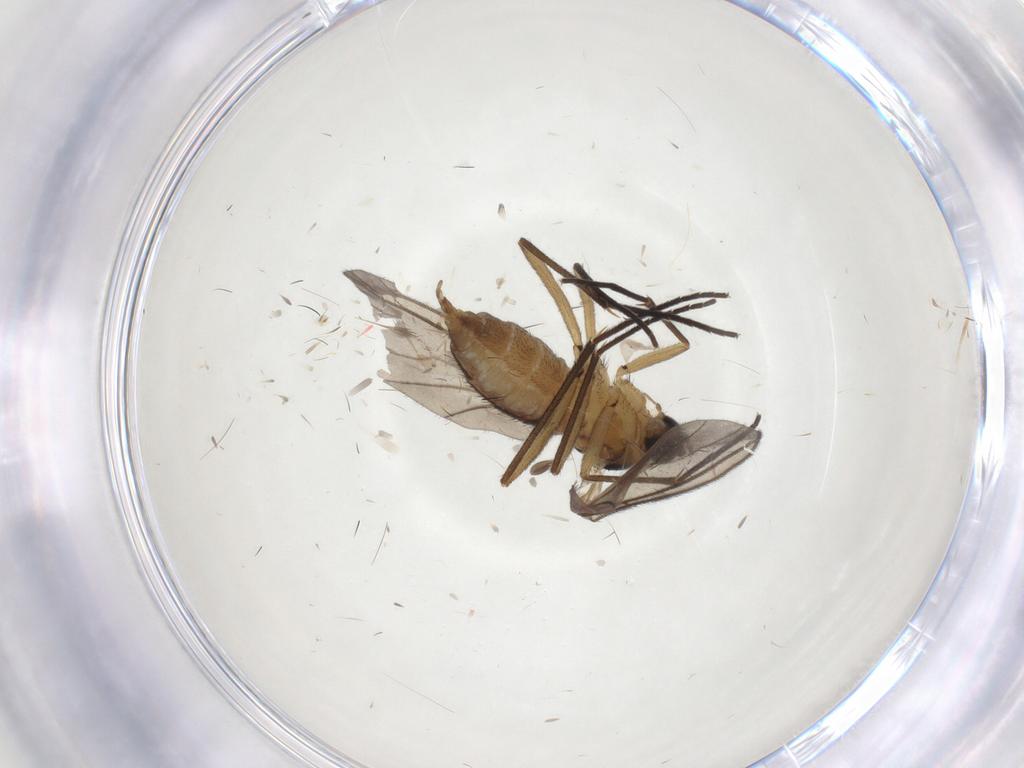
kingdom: Animalia
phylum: Arthropoda
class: Insecta
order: Diptera
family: Sciaridae
